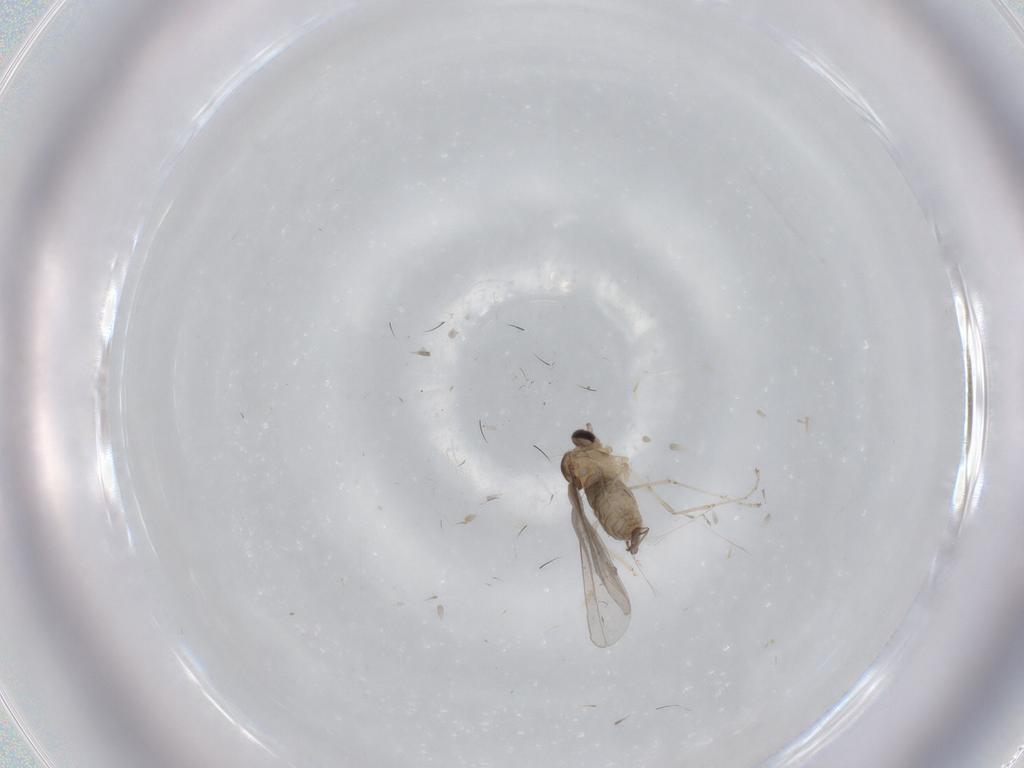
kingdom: Animalia
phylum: Arthropoda
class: Insecta
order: Diptera
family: Cecidomyiidae
